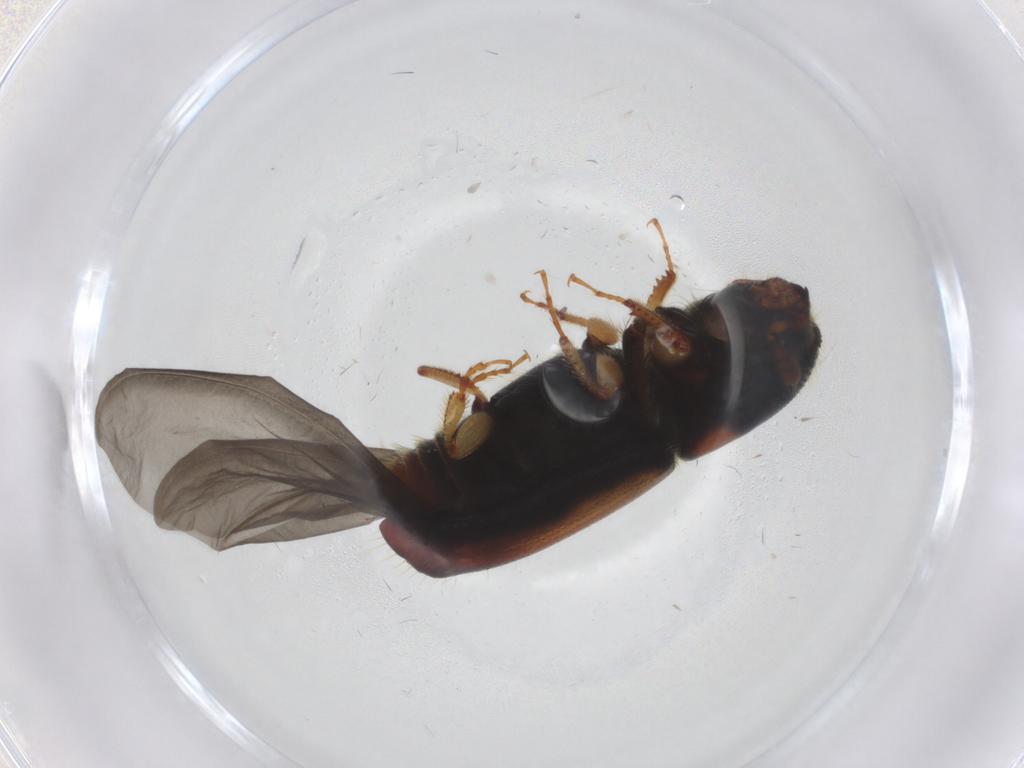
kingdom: Animalia
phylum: Arthropoda
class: Insecta
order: Coleoptera
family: Curculionidae
